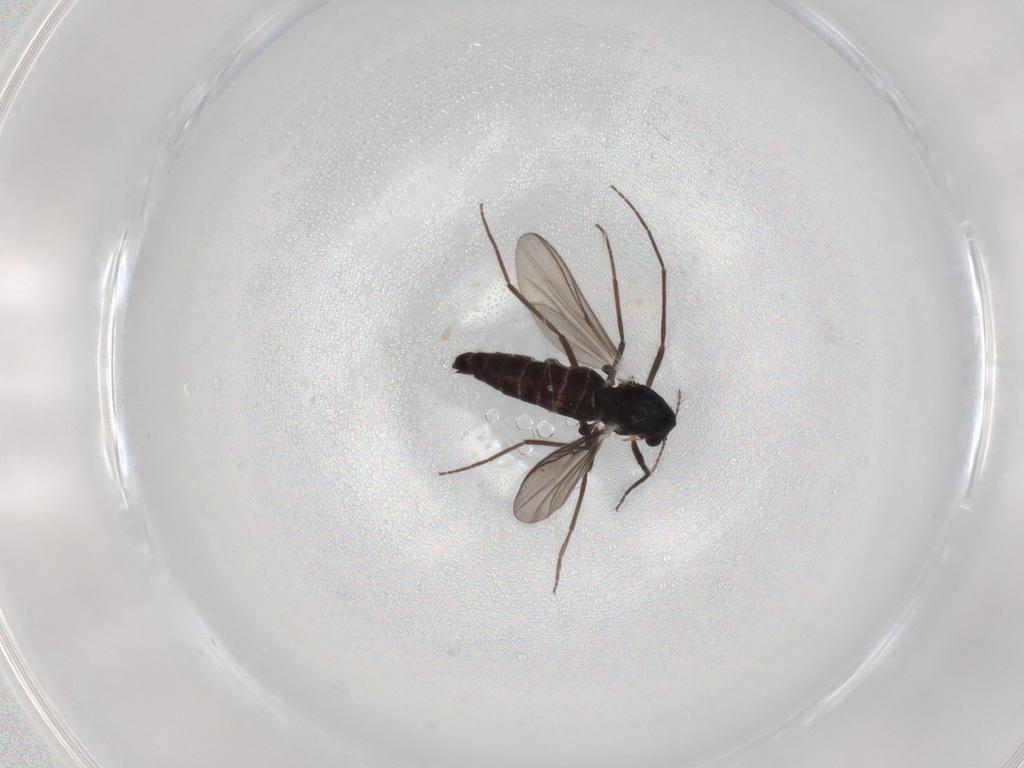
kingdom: Animalia
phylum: Arthropoda
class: Insecta
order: Diptera
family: Chironomidae
